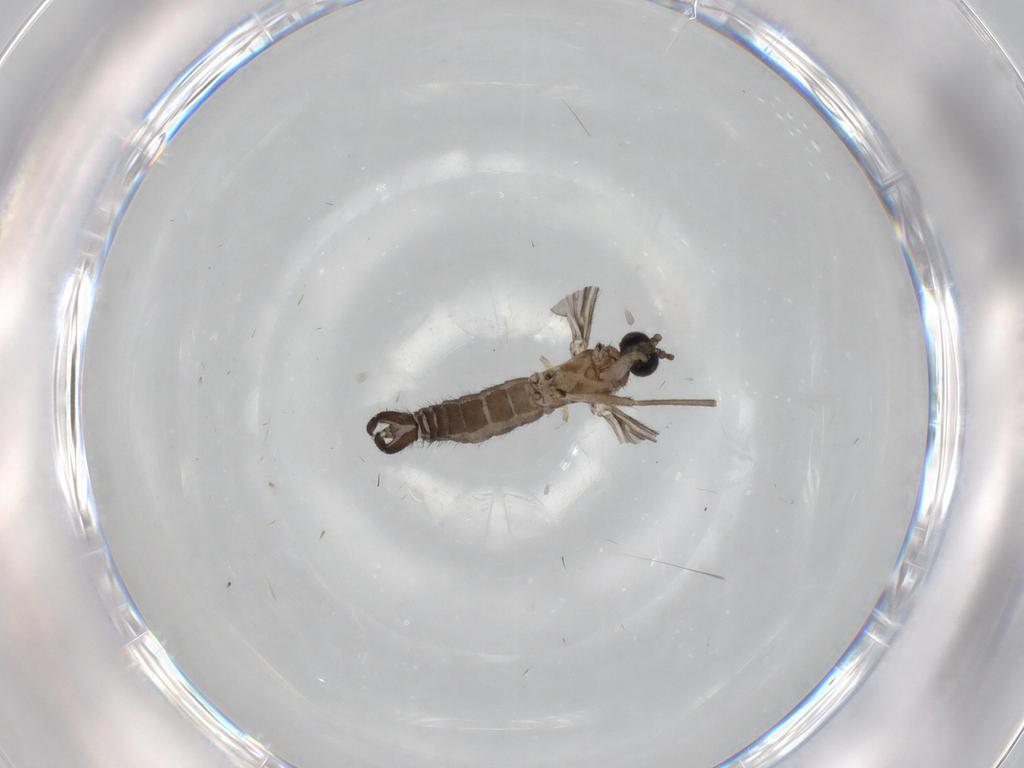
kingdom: Animalia
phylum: Arthropoda
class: Insecta
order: Diptera
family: Sciaridae
